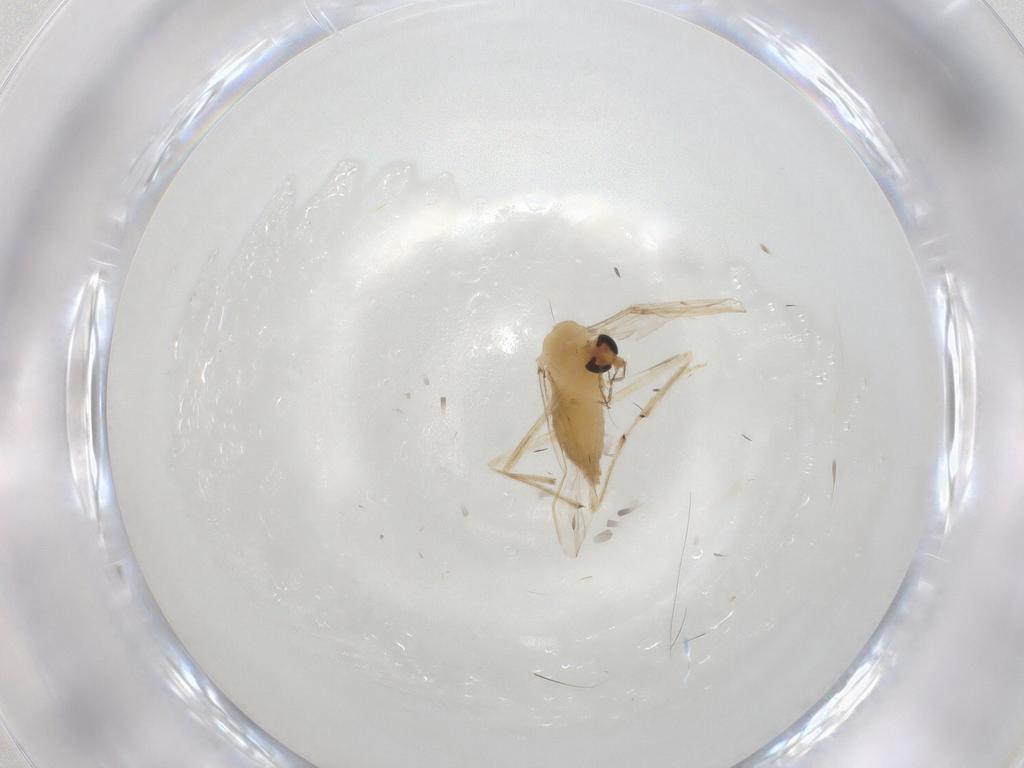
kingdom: Animalia
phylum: Arthropoda
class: Insecta
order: Diptera
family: Chironomidae
